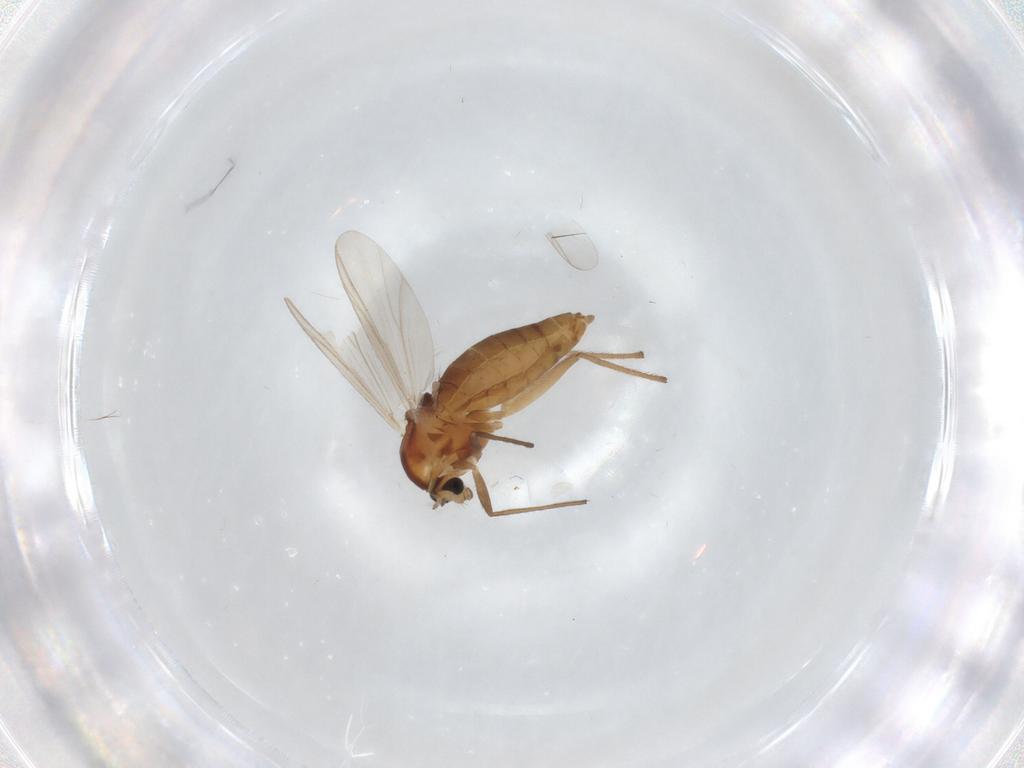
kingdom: Animalia
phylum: Arthropoda
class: Insecta
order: Diptera
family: Chironomidae
